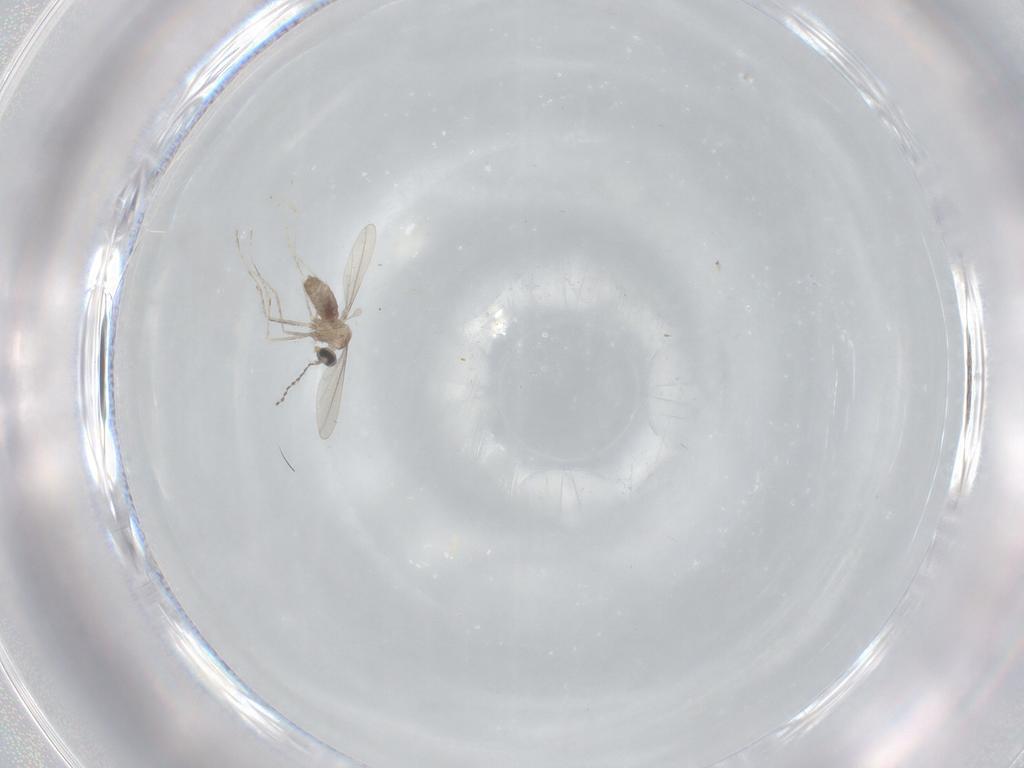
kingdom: Animalia
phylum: Arthropoda
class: Insecta
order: Diptera
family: Cecidomyiidae
